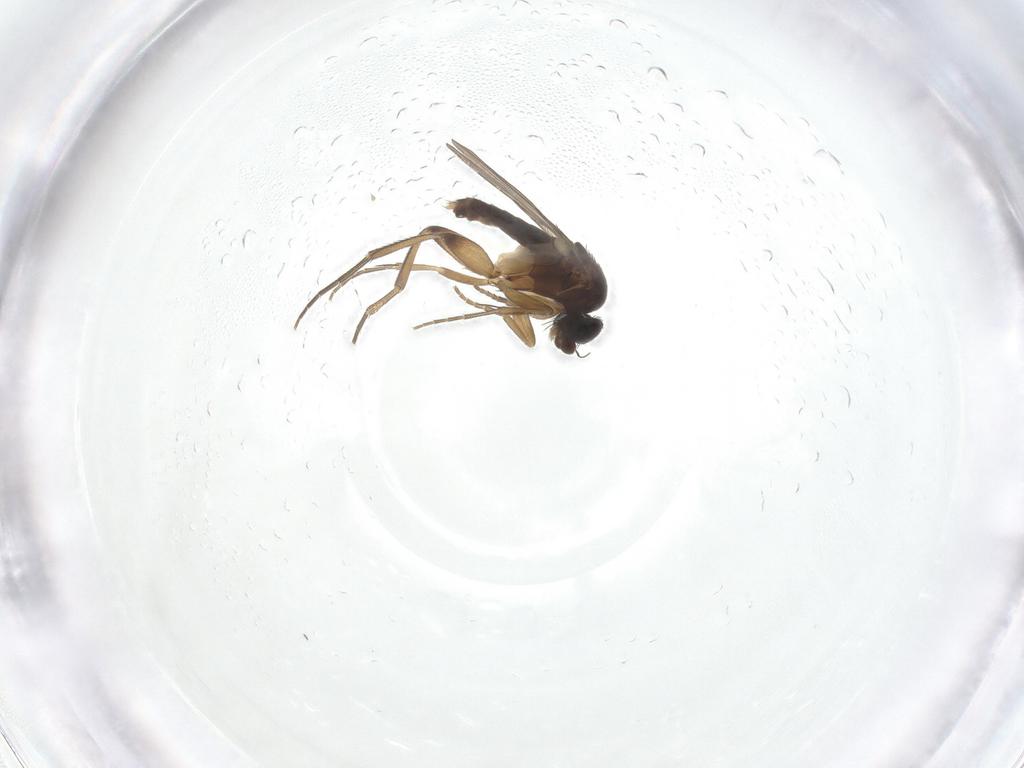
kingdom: Animalia
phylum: Arthropoda
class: Insecta
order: Diptera
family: Phoridae
